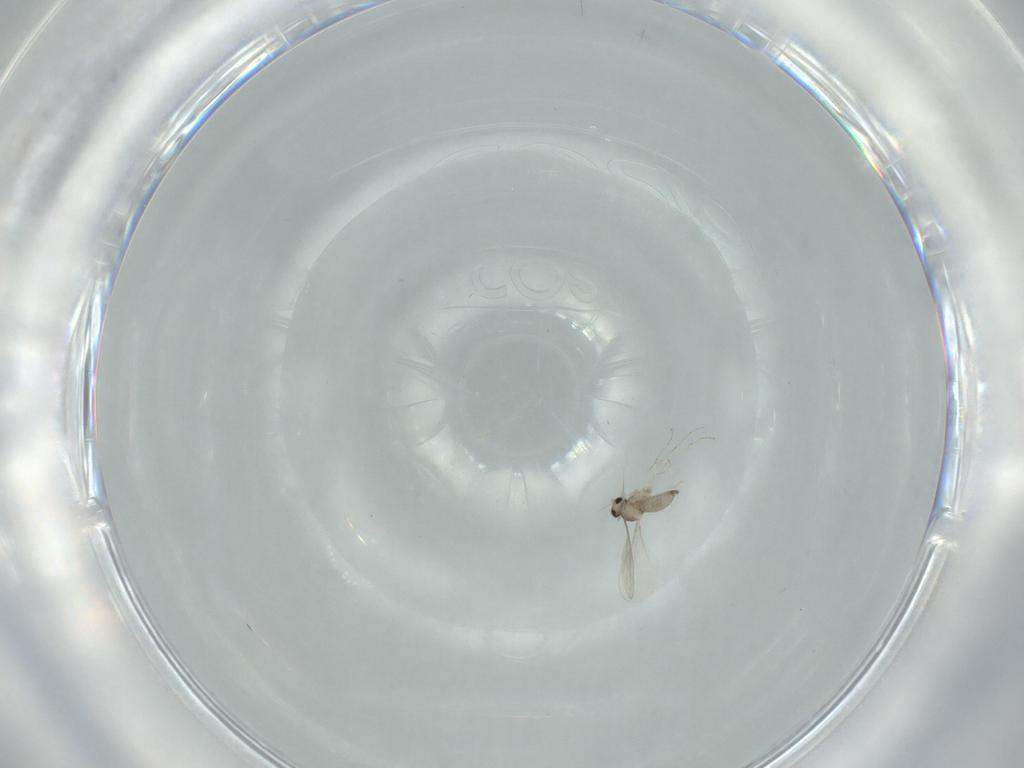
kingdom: Animalia
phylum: Arthropoda
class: Insecta
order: Diptera
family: Cecidomyiidae
